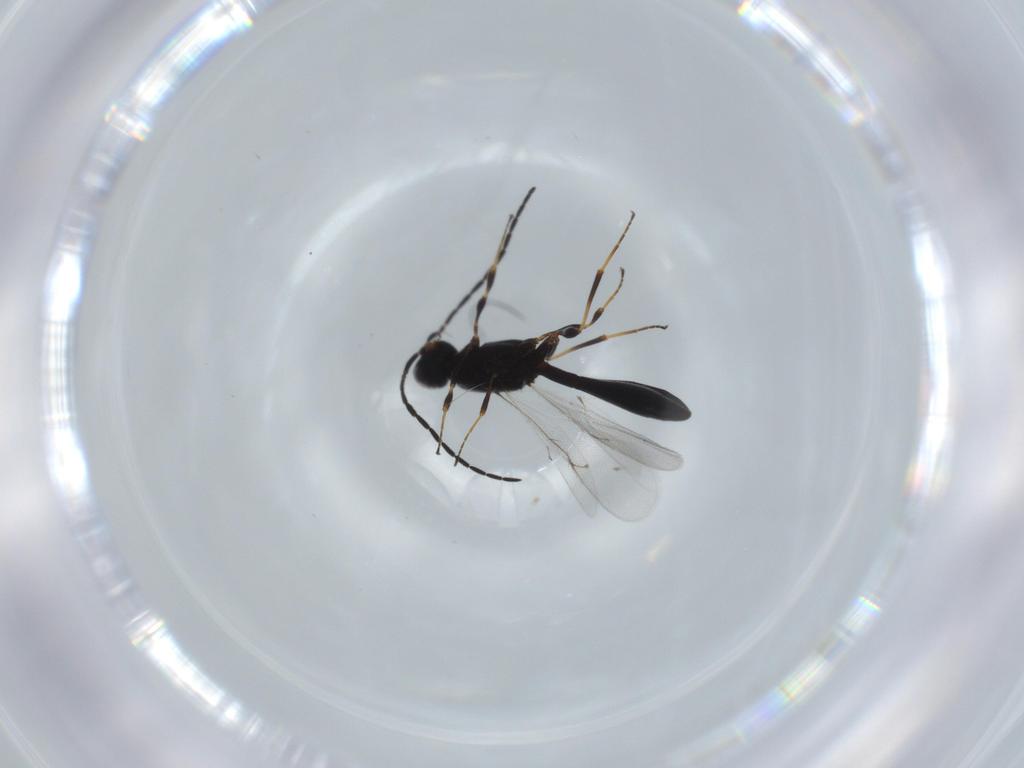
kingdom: Animalia
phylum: Arthropoda
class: Insecta
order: Hymenoptera
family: Scelionidae
